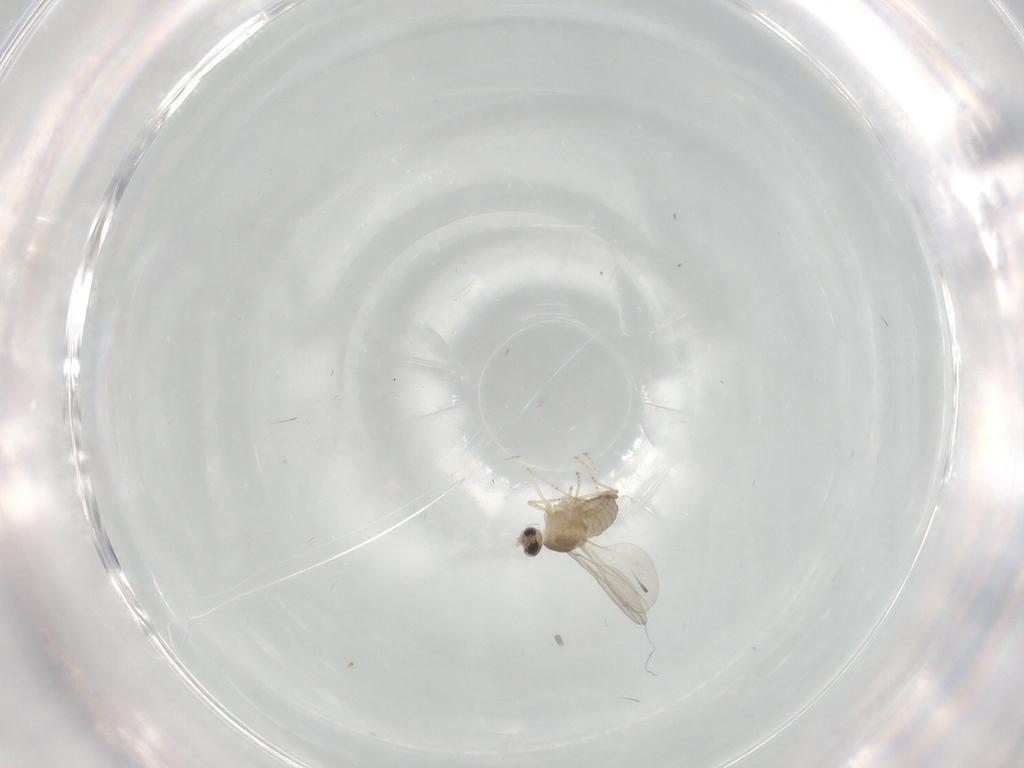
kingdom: Animalia
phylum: Arthropoda
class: Insecta
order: Diptera
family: Cecidomyiidae
